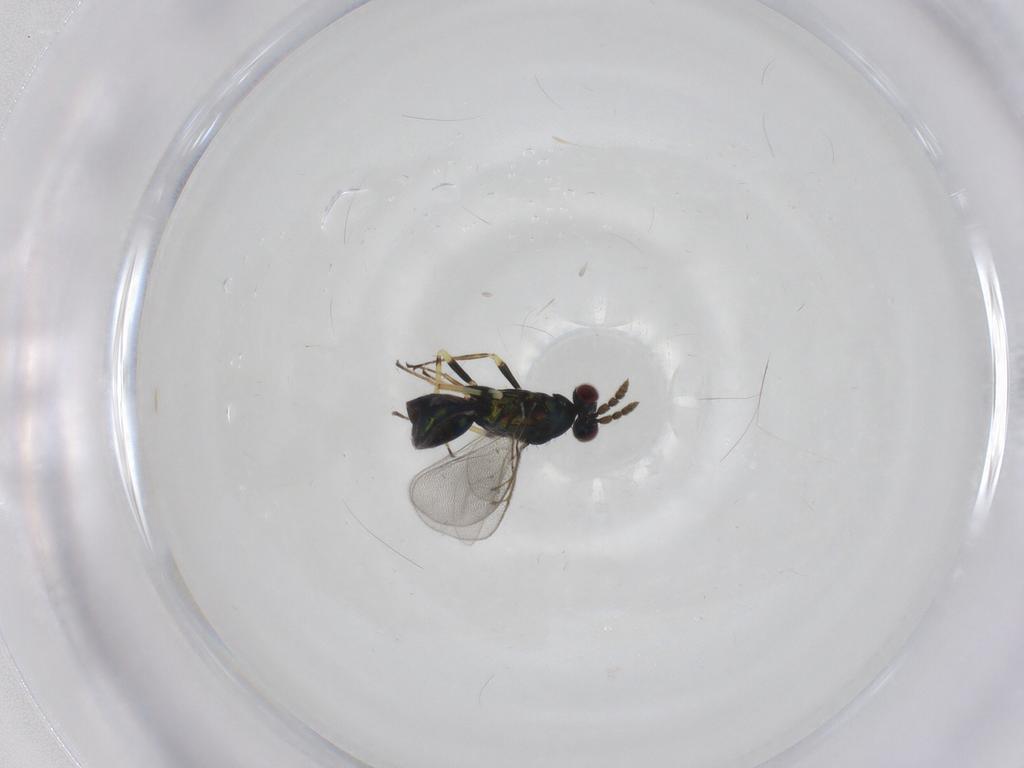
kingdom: Animalia
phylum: Arthropoda
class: Insecta
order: Hymenoptera
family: Eulophidae
